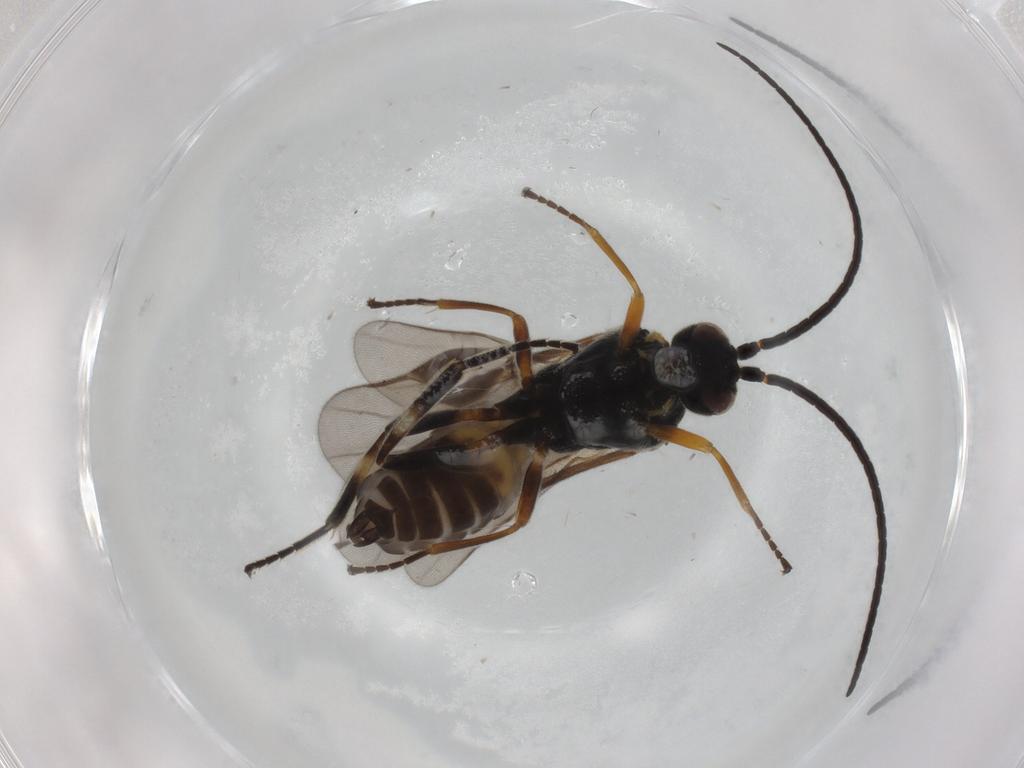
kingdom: Animalia
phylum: Arthropoda
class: Insecta
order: Hymenoptera
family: Braconidae
